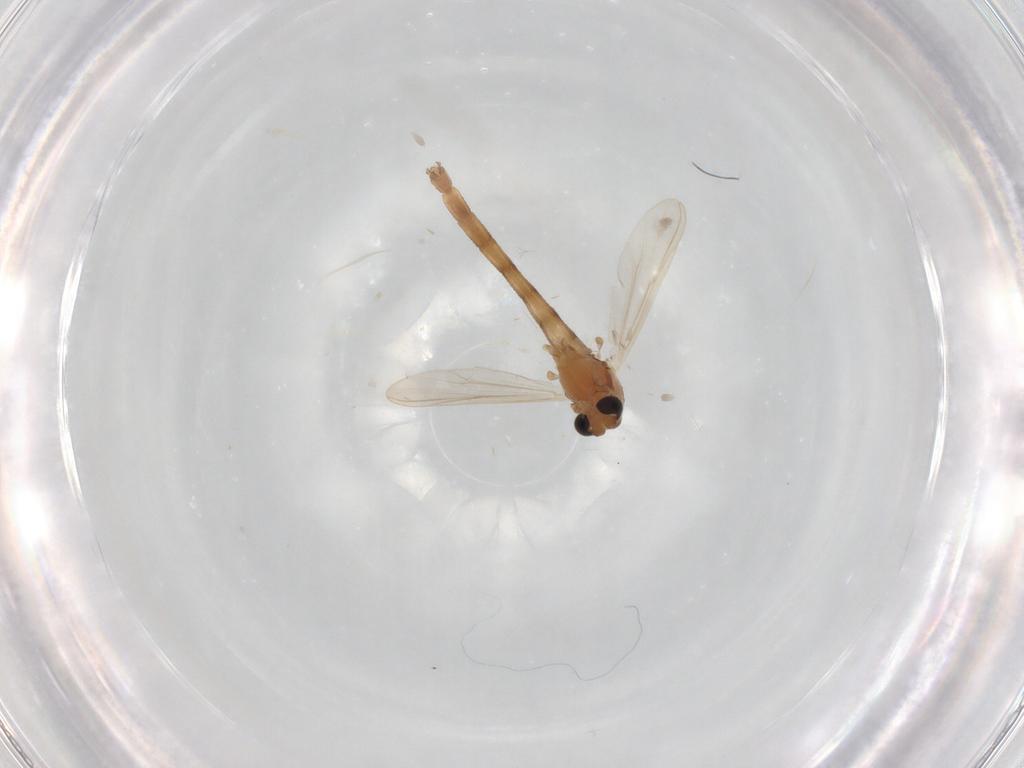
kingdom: Animalia
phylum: Arthropoda
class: Insecta
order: Diptera
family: Chironomidae
